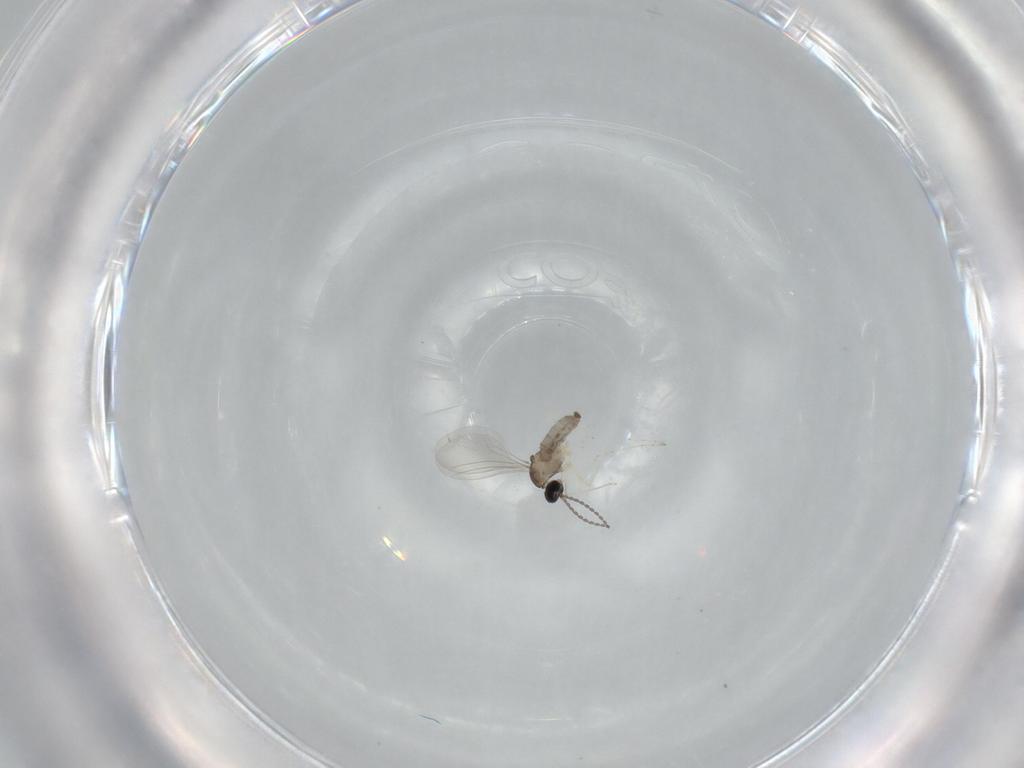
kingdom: Animalia
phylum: Arthropoda
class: Insecta
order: Diptera
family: Cecidomyiidae
